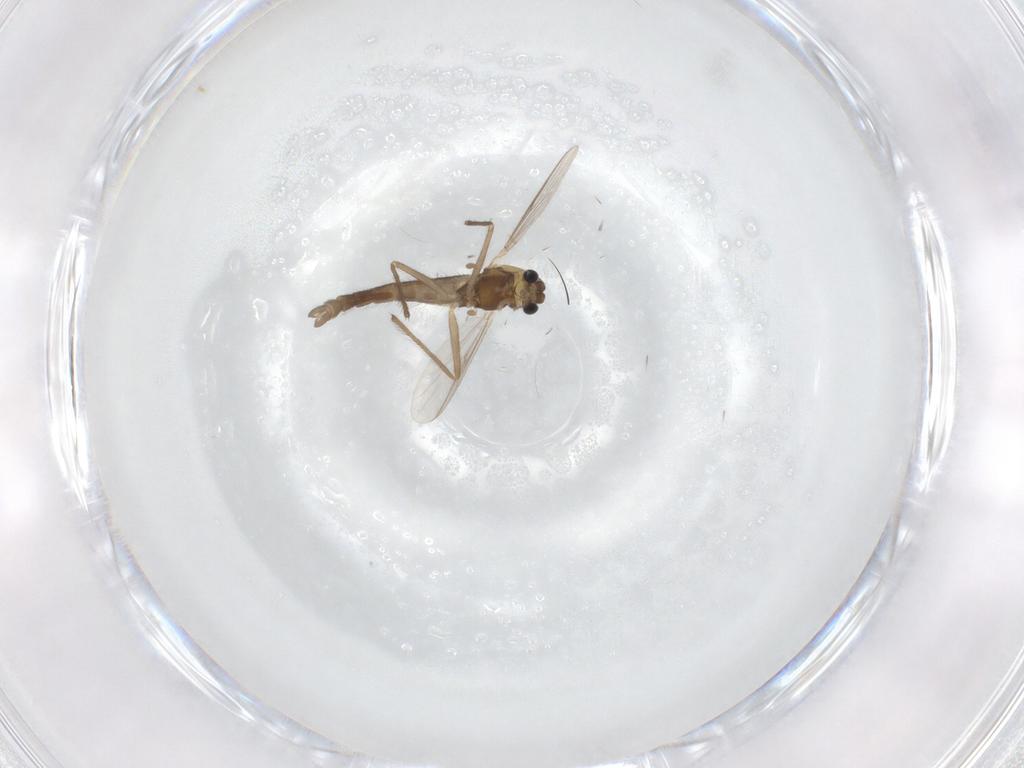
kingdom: Animalia
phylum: Arthropoda
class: Insecta
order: Diptera
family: Chironomidae
